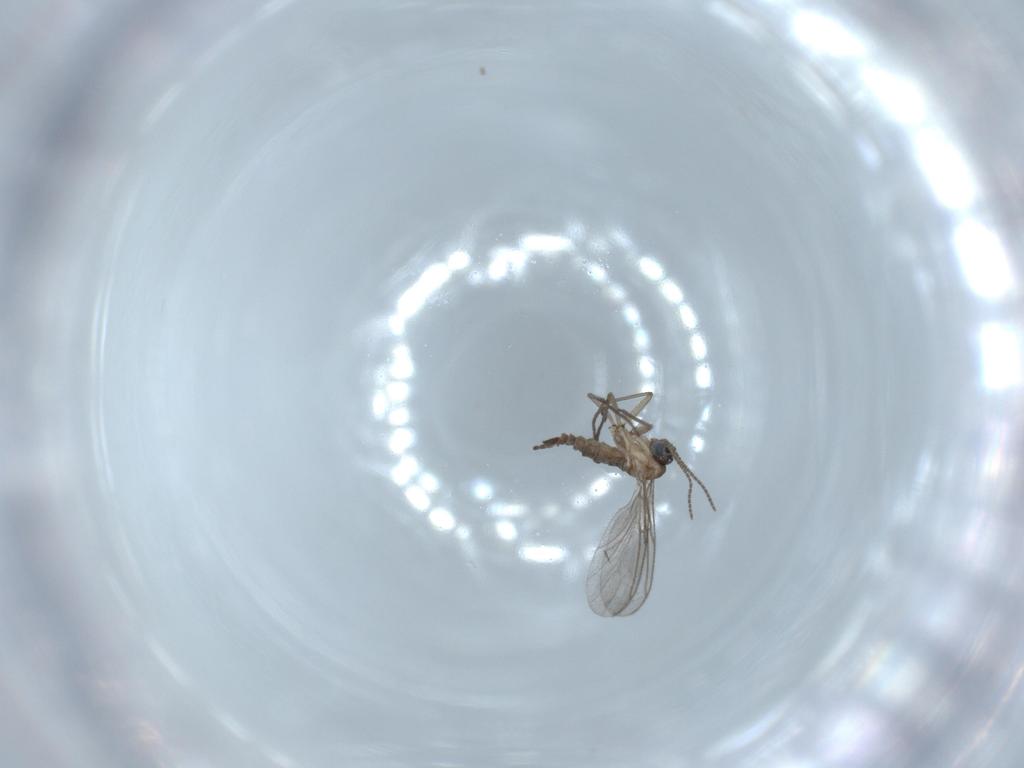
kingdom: Animalia
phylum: Arthropoda
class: Insecta
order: Diptera
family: Sciaridae
